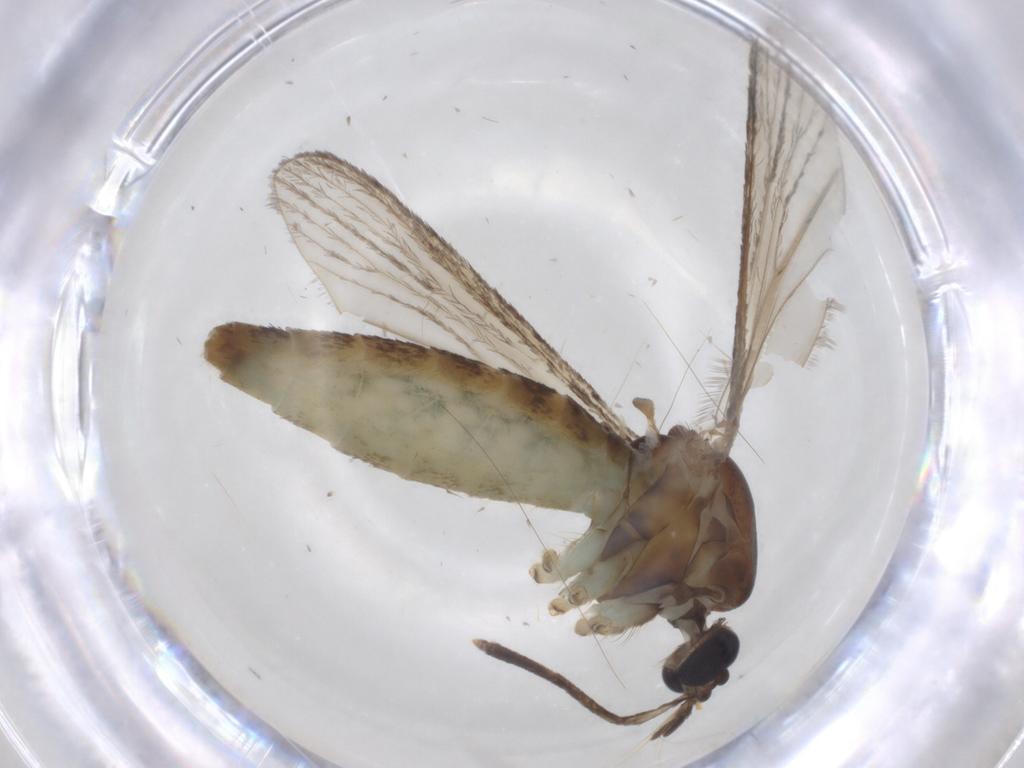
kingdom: Animalia
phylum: Arthropoda
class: Insecta
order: Diptera
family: Cecidomyiidae
